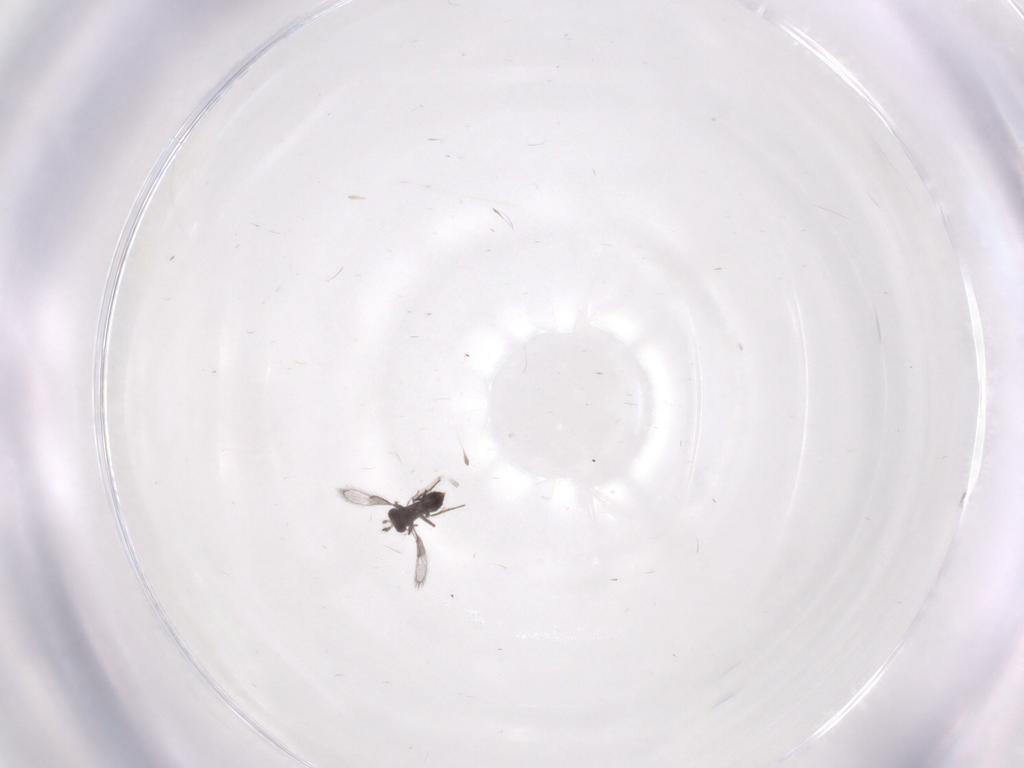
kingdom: Animalia
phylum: Arthropoda
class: Insecta
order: Hymenoptera
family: Trichogrammatidae
